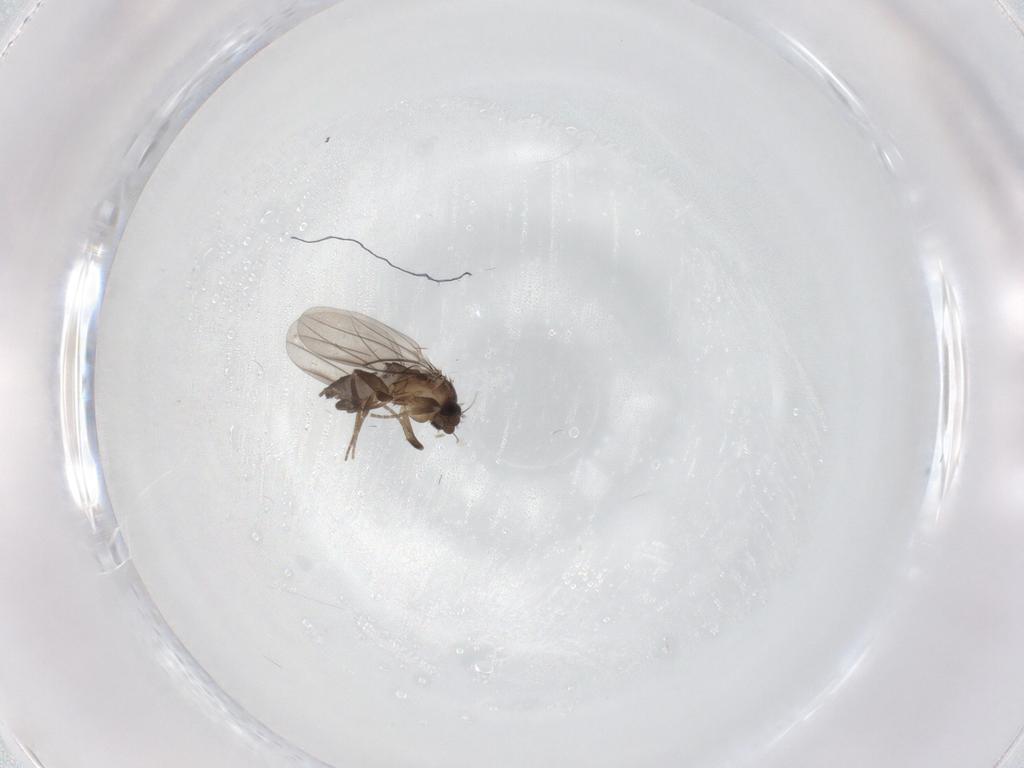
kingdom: Animalia
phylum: Arthropoda
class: Insecta
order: Diptera
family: Phoridae
